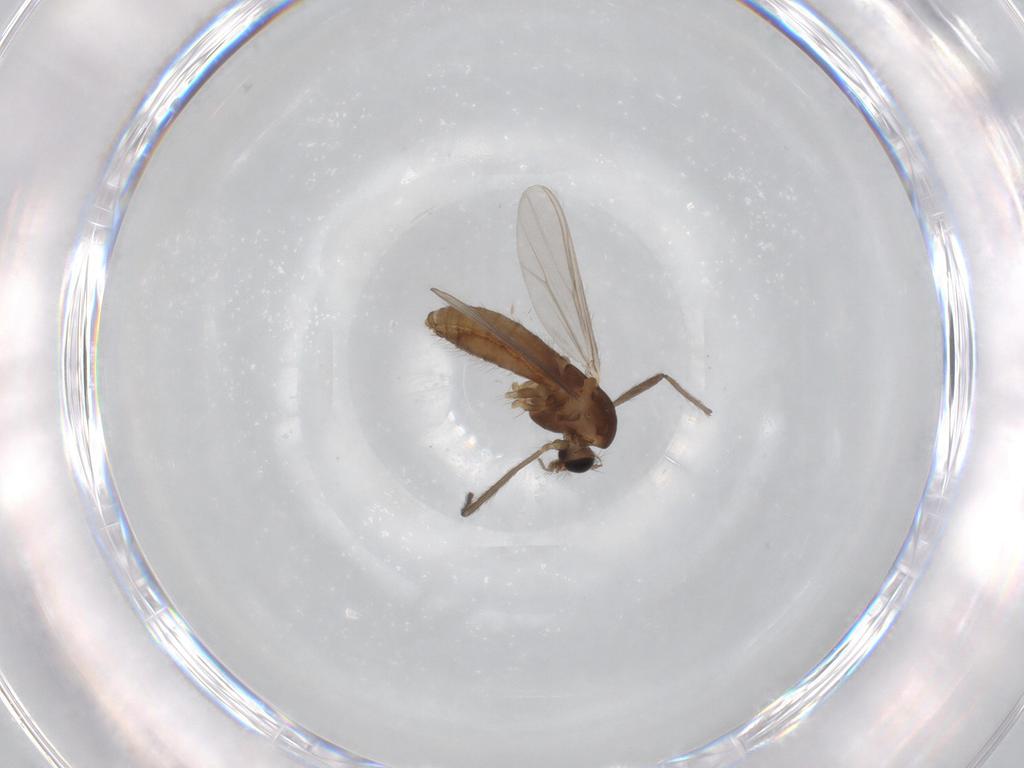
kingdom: Animalia
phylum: Arthropoda
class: Insecta
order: Diptera
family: Chironomidae
